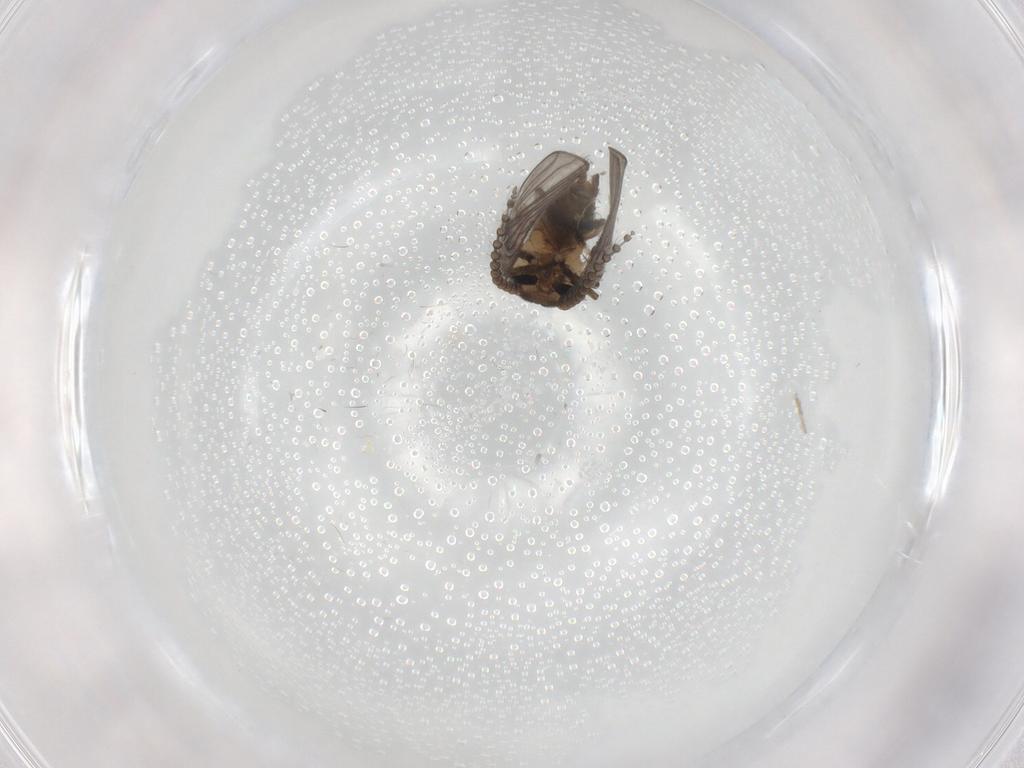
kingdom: Animalia
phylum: Arthropoda
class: Insecta
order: Diptera
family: Psychodidae
